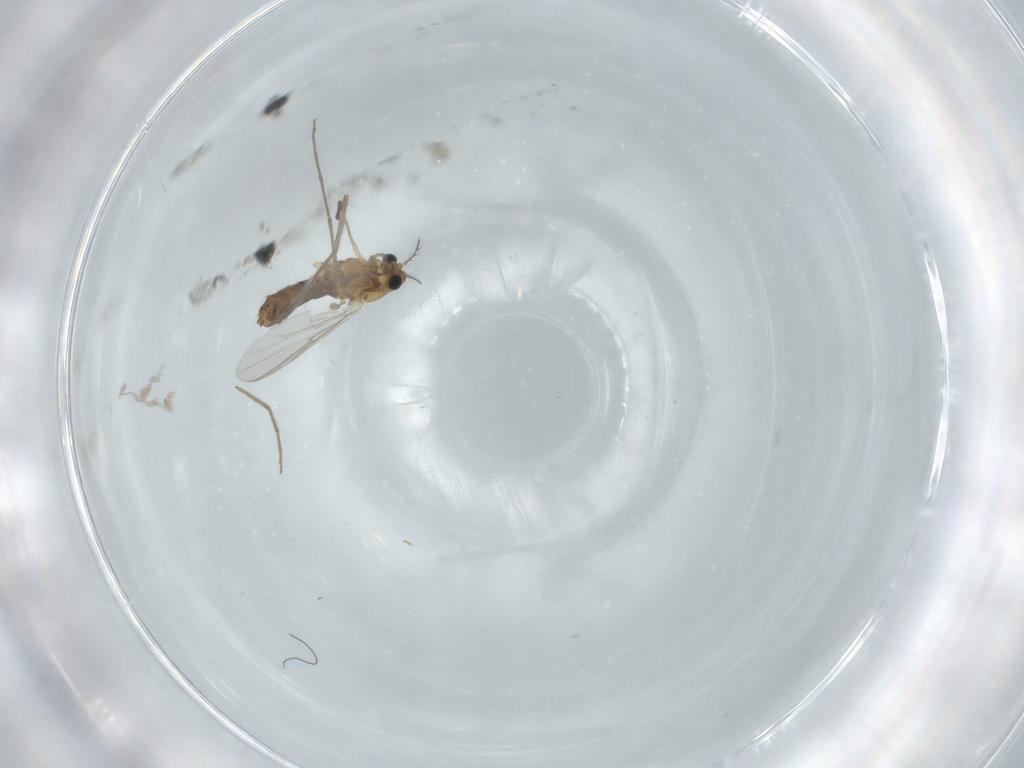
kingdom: Animalia
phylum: Arthropoda
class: Insecta
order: Diptera
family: Chironomidae
